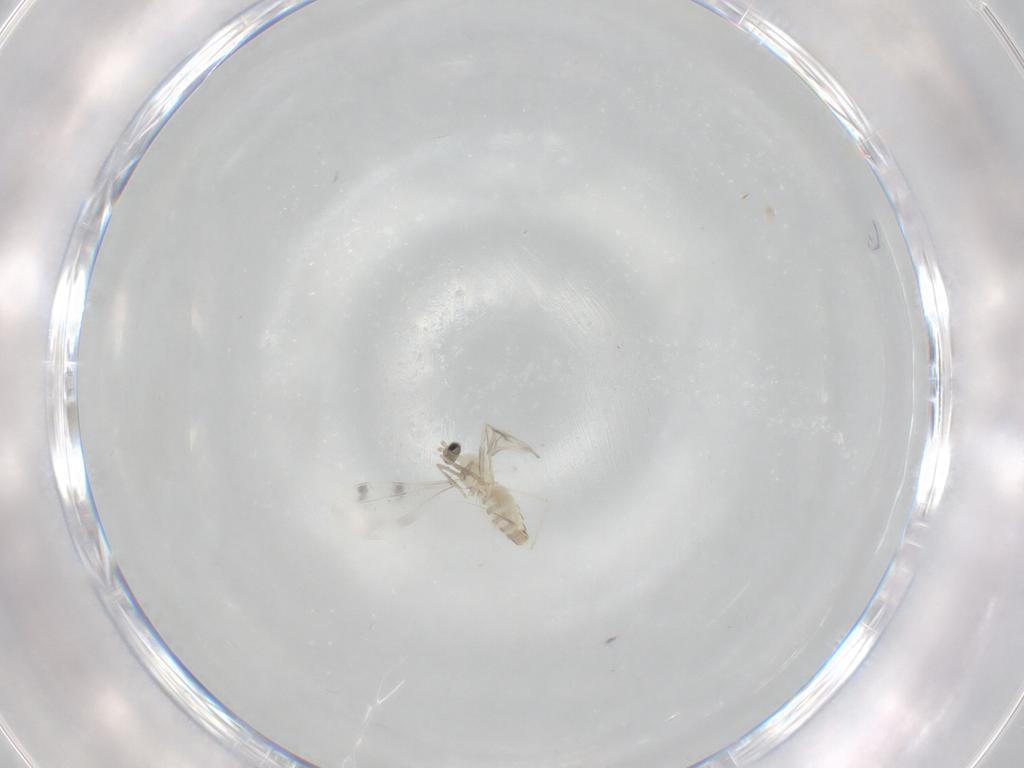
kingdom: Animalia
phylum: Arthropoda
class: Insecta
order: Diptera
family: Cecidomyiidae
